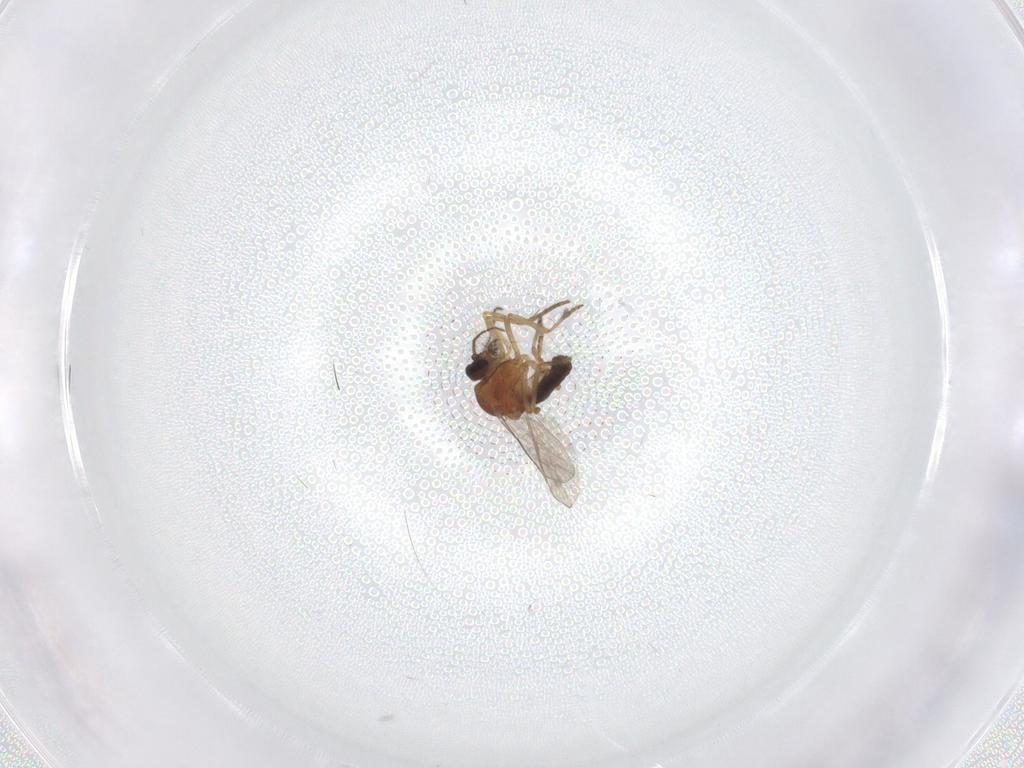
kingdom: Animalia
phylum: Arthropoda
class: Insecta
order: Diptera
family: Ceratopogonidae
